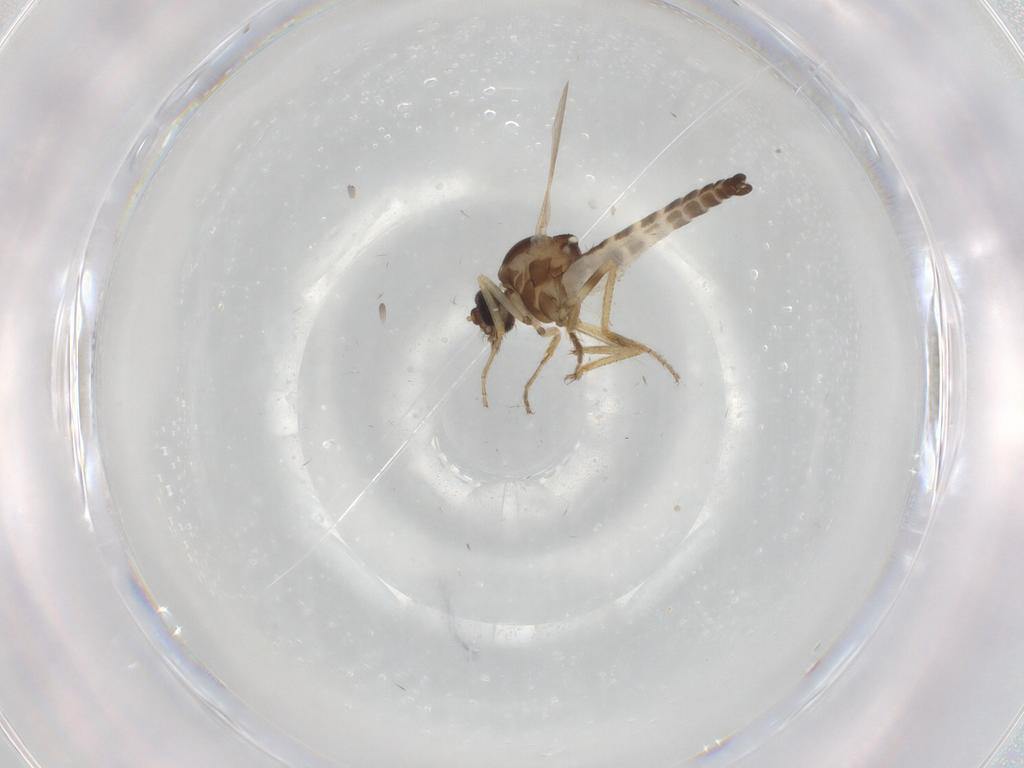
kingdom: Animalia
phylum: Arthropoda
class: Insecta
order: Diptera
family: Ceratopogonidae
